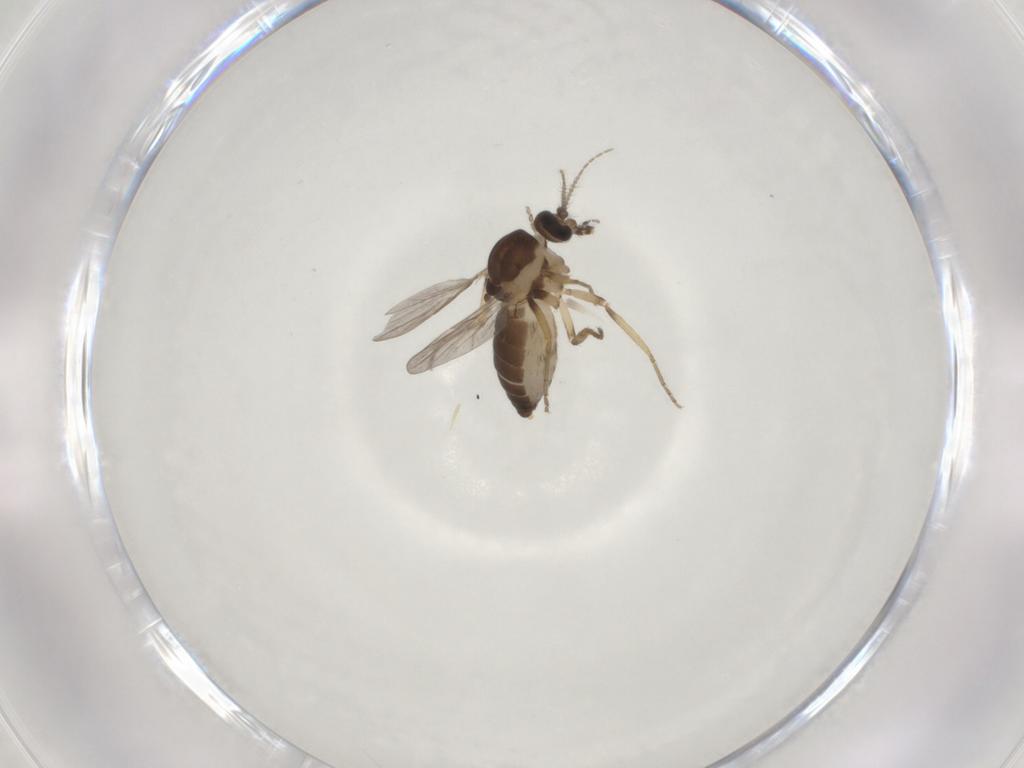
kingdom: Animalia
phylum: Arthropoda
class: Insecta
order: Diptera
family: Ceratopogonidae
